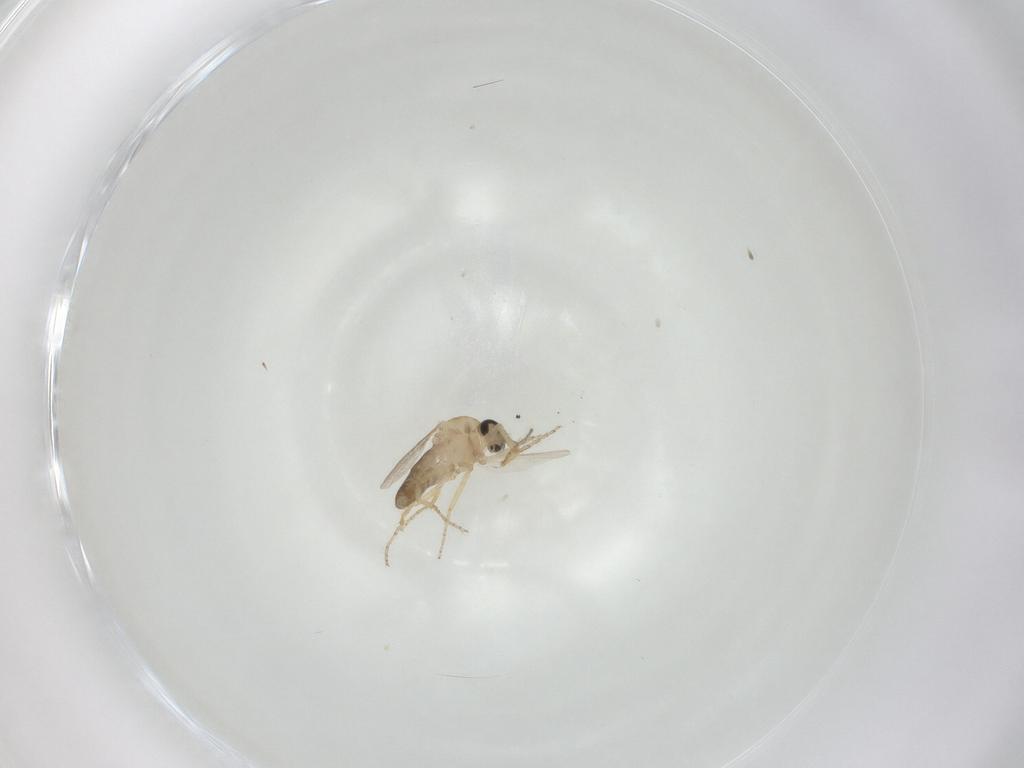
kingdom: Animalia
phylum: Arthropoda
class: Insecta
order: Diptera
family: Ceratopogonidae
